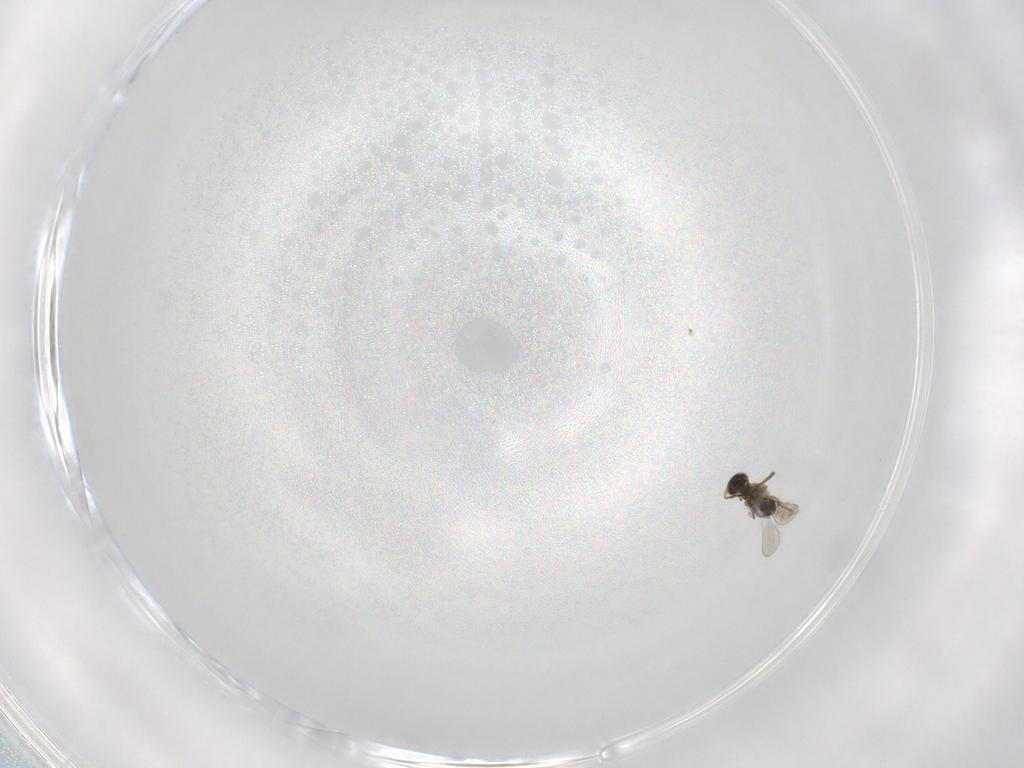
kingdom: Animalia
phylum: Arthropoda
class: Insecta
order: Hymenoptera
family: Platygastridae
